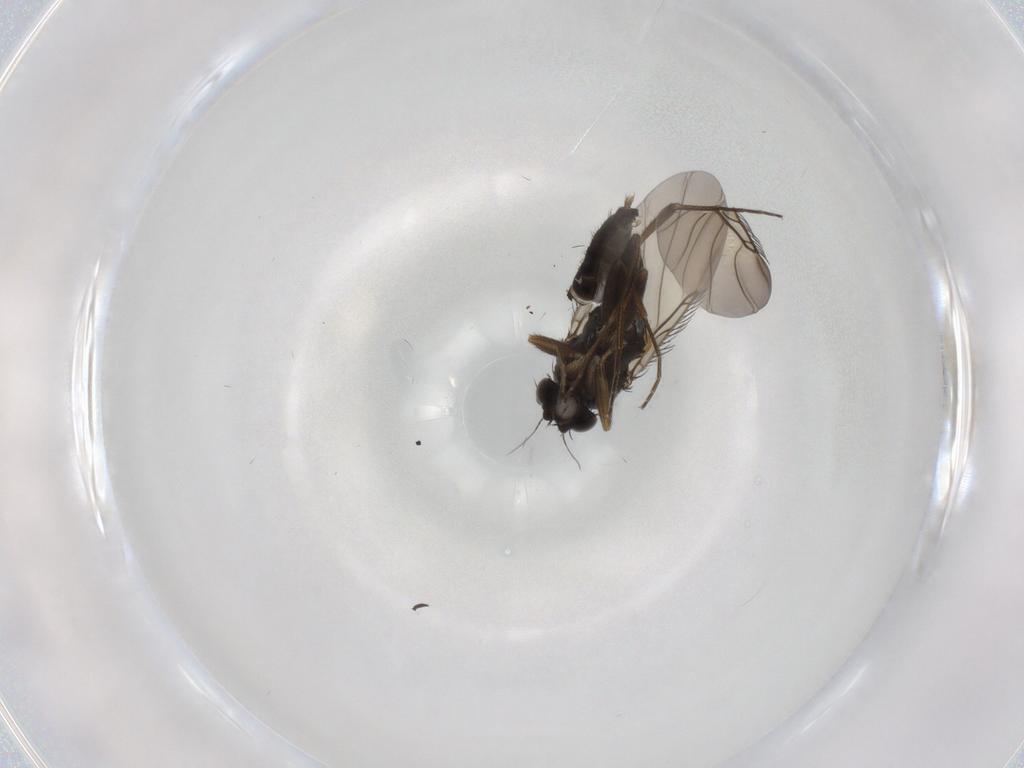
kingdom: Animalia
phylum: Arthropoda
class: Insecta
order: Diptera
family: Phoridae
